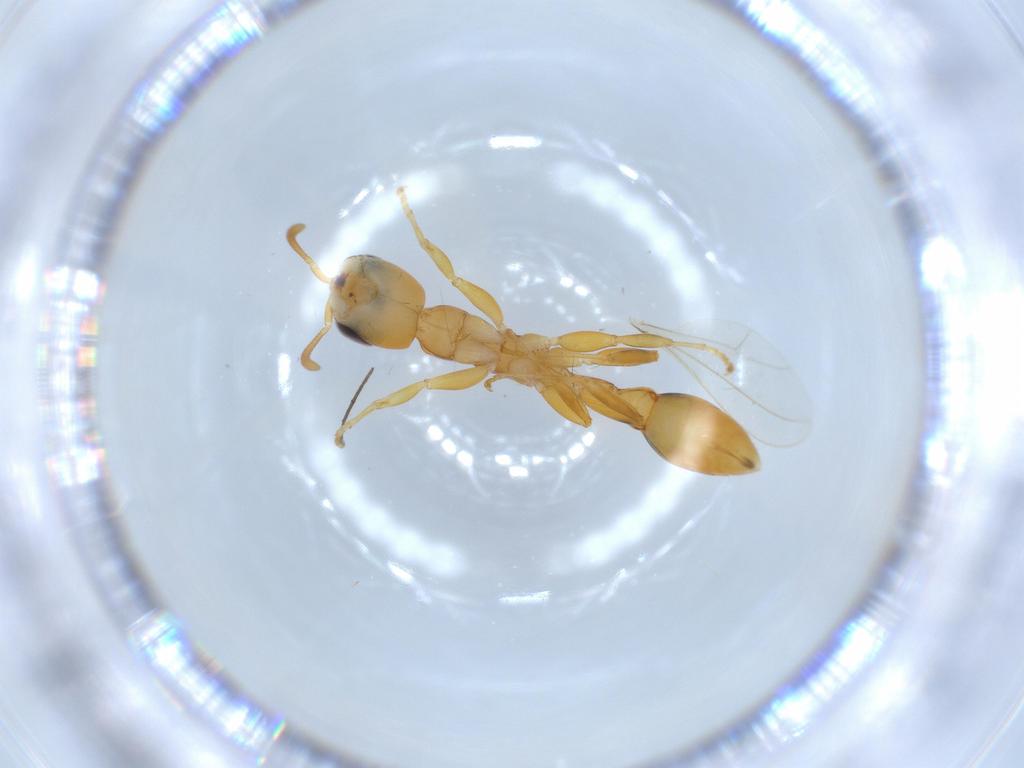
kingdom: Animalia
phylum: Arthropoda
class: Insecta
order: Hymenoptera
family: Formicidae
